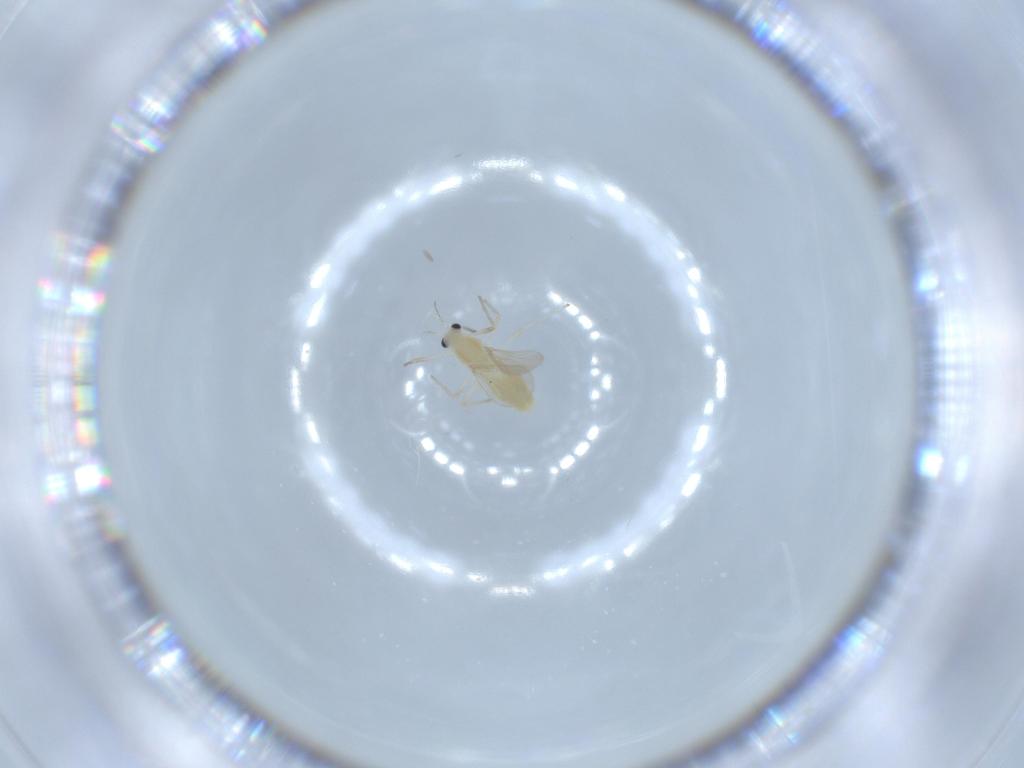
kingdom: Animalia
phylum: Arthropoda
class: Insecta
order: Diptera
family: Chironomidae
